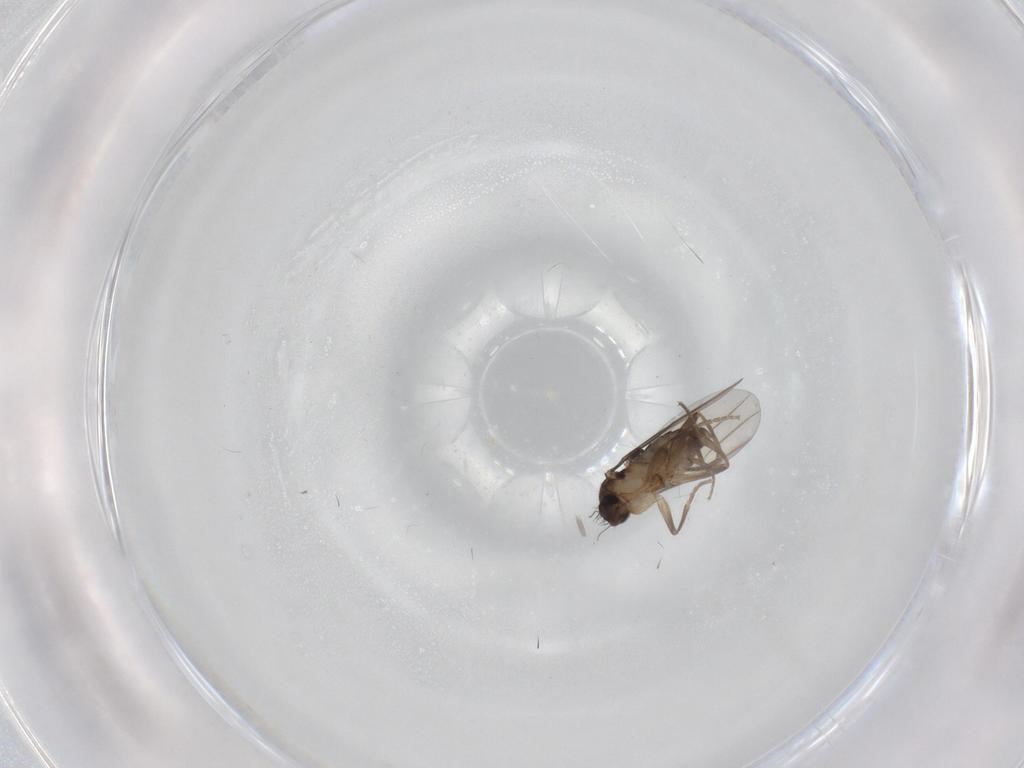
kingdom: Animalia
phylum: Arthropoda
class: Insecta
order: Diptera
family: Phoridae
